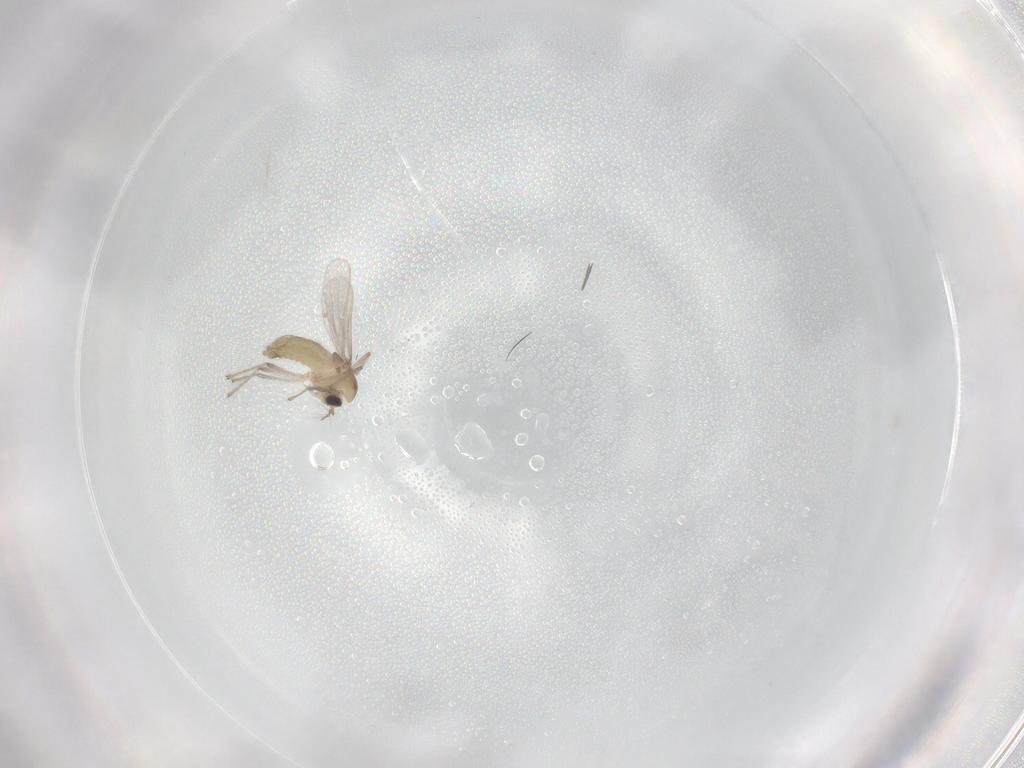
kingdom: Animalia
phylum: Arthropoda
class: Insecta
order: Diptera
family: Chironomidae
